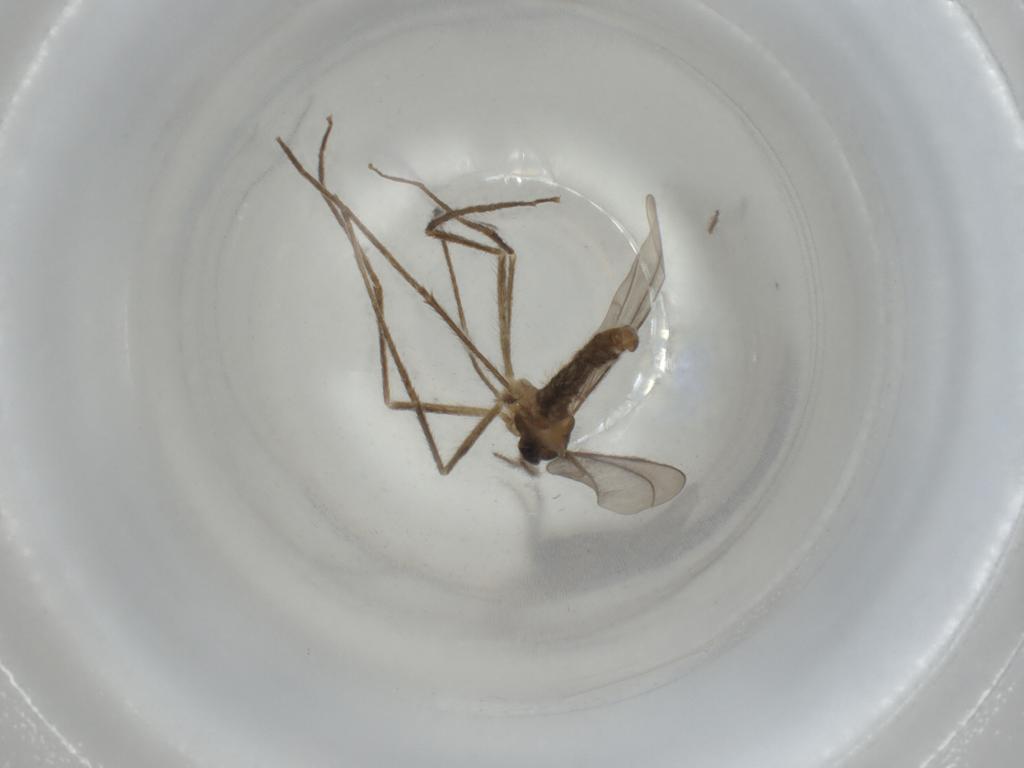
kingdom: Animalia
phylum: Arthropoda
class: Insecta
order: Diptera
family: Cecidomyiidae
